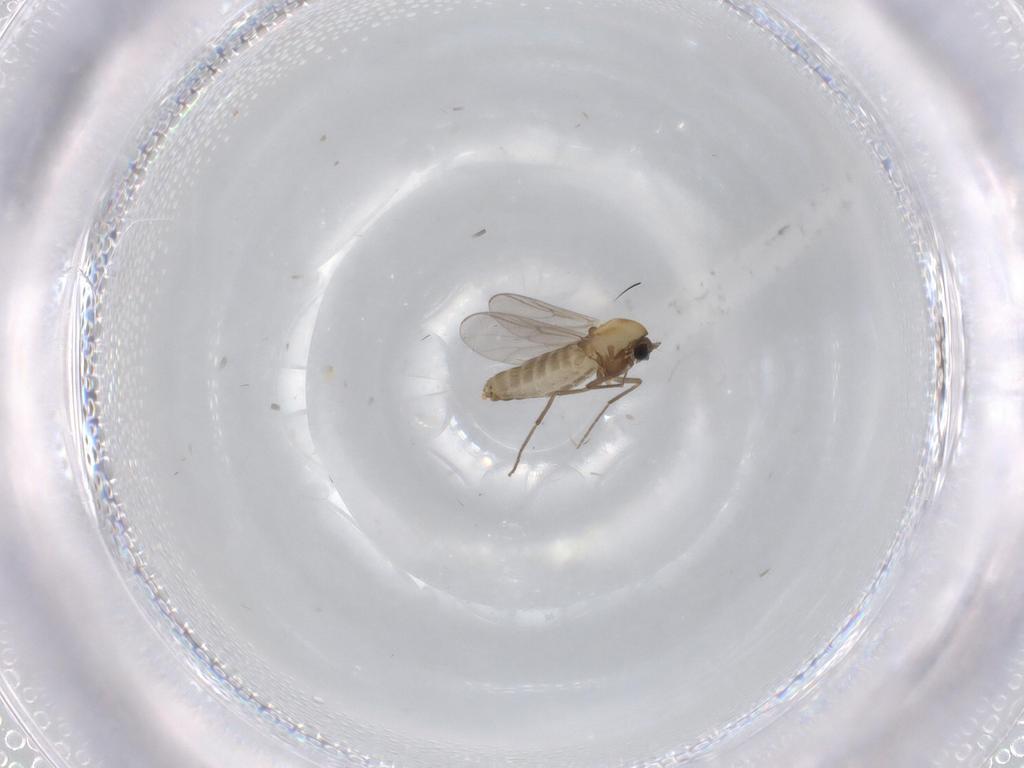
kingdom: Animalia
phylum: Arthropoda
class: Insecta
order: Diptera
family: Chironomidae
